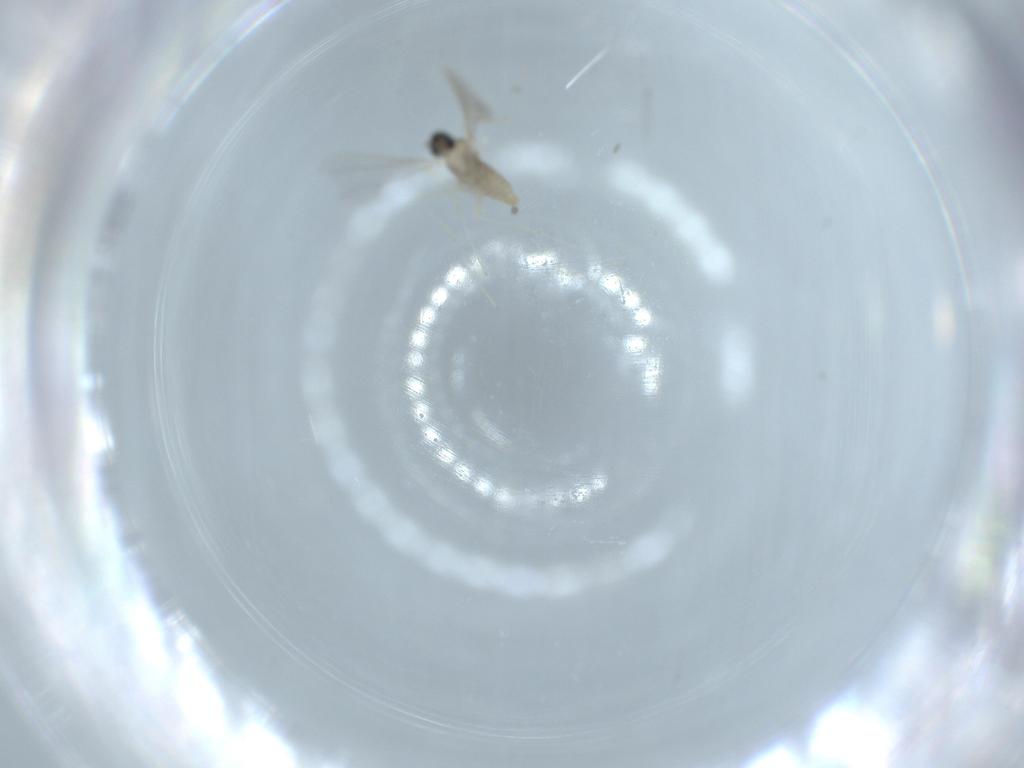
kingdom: Animalia
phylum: Arthropoda
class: Insecta
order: Diptera
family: Cecidomyiidae
